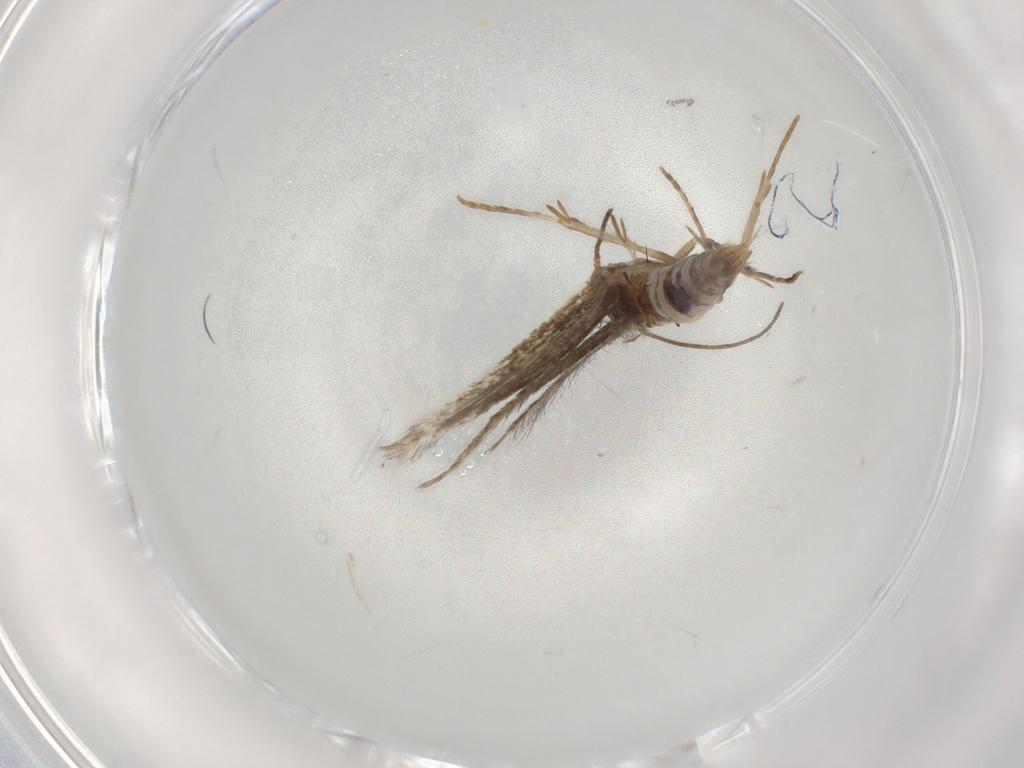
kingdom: Animalia
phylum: Arthropoda
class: Insecta
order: Lepidoptera
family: Elachistidae
